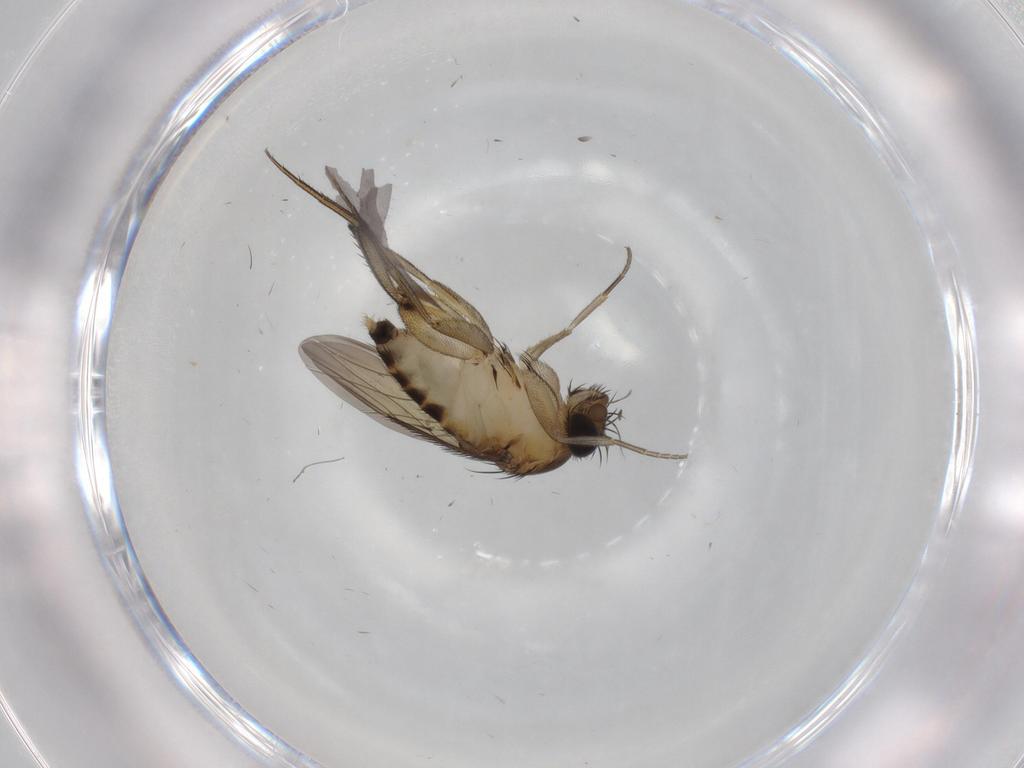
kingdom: Animalia
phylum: Arthropoda
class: Insecta
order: Diptera
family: Phoridae
